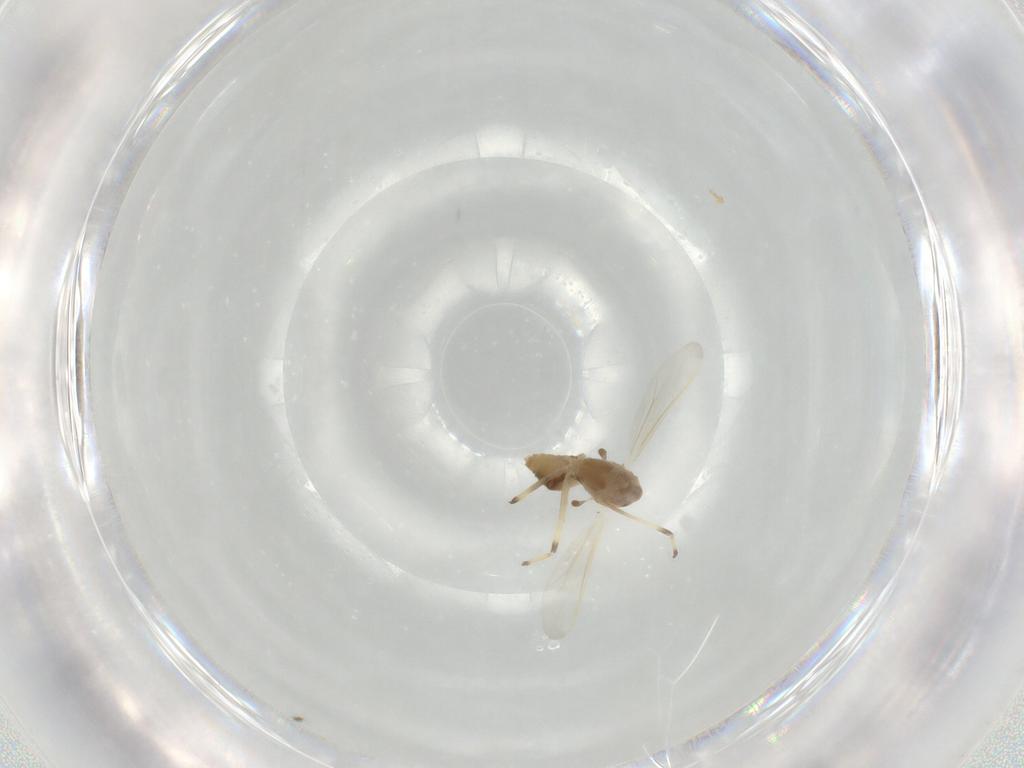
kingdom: Animalia
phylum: Arthropoda
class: Insecta
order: Diptera
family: Chironomidae
